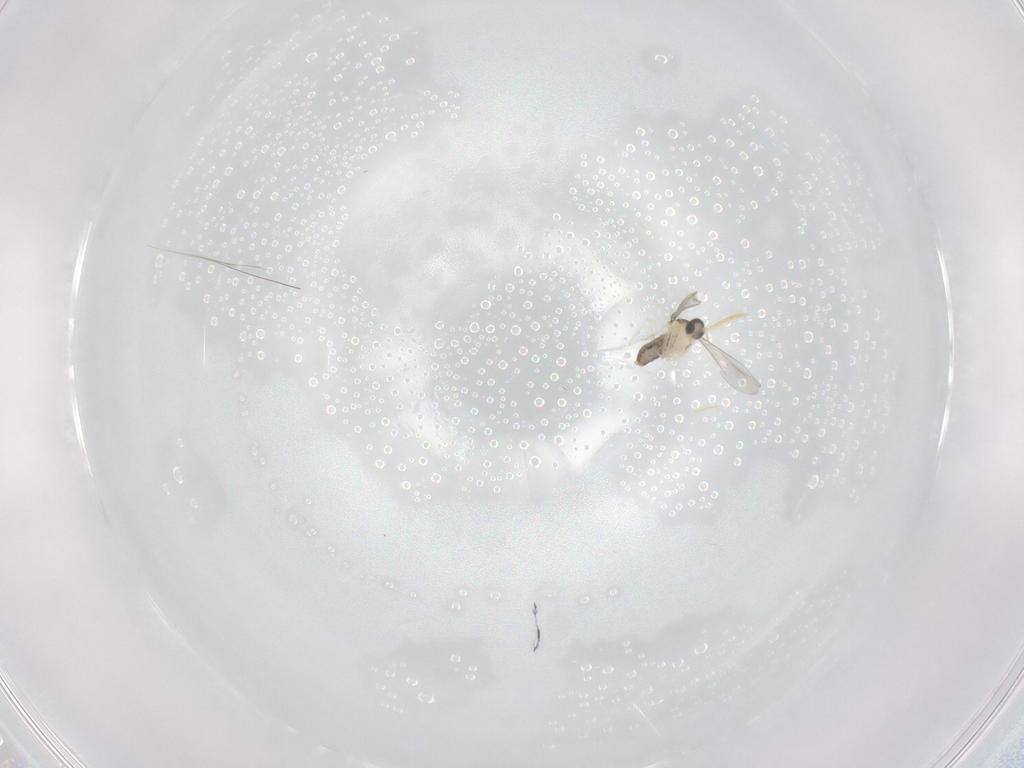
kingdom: Animalia
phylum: Arthropoda
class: Insecta
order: Diptera
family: Cecidomyiidae
